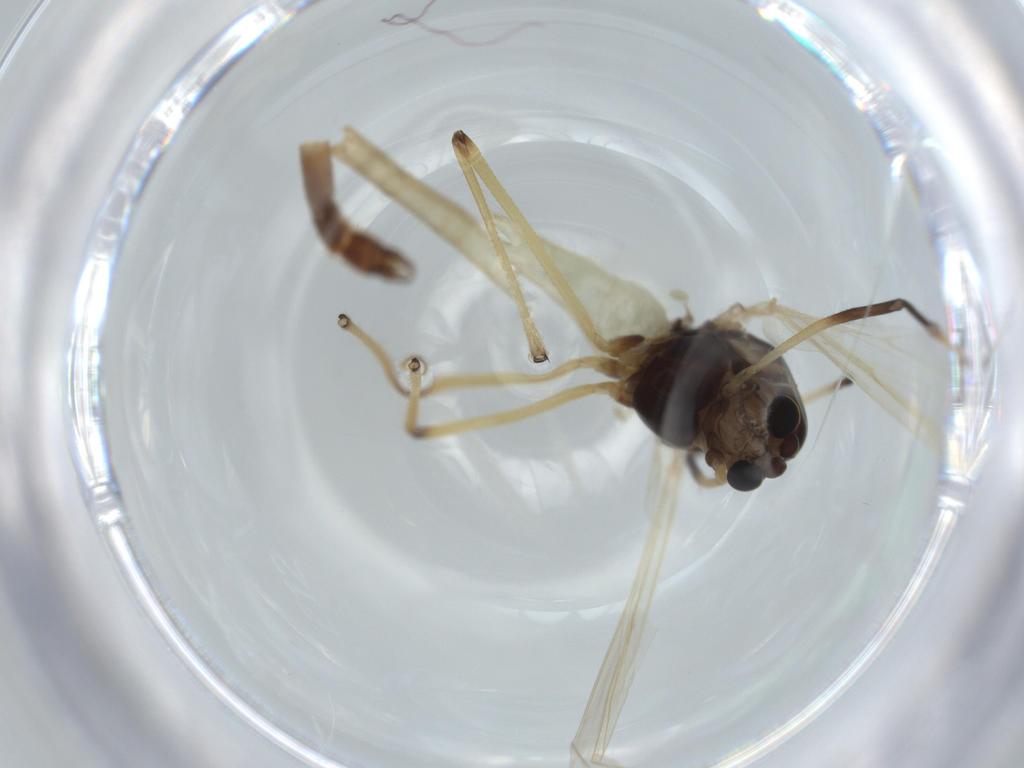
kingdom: Animalia
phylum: Arthropoda
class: Insecta
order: Diptera
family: Chironomidae
